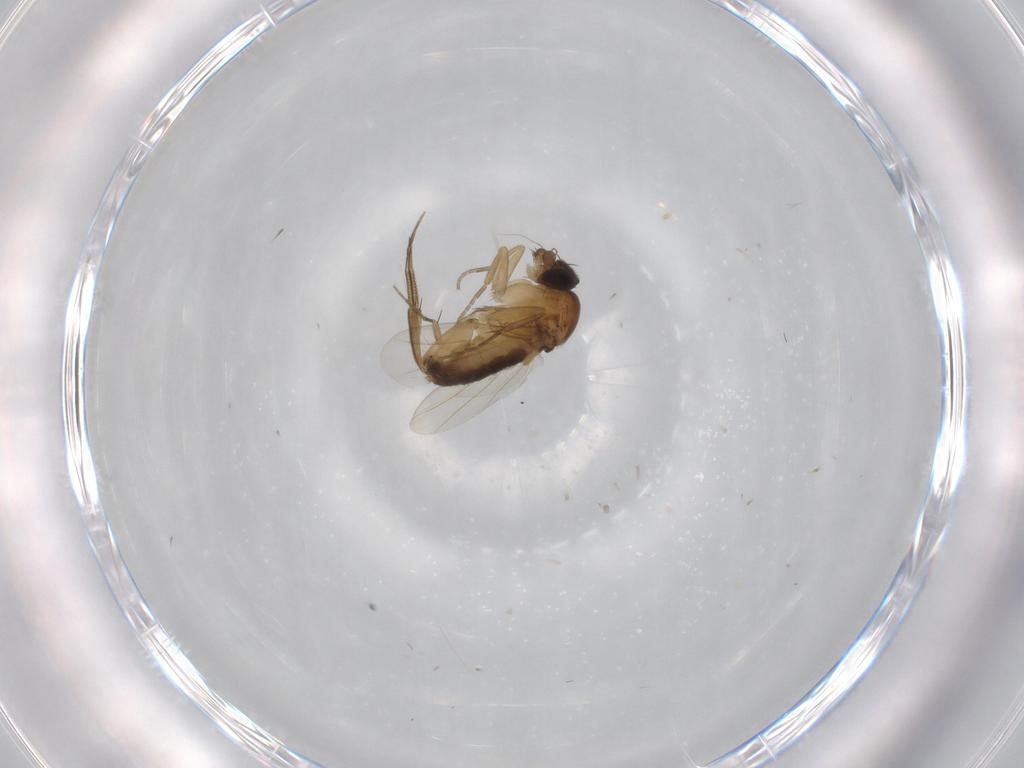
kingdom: Animalia
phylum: Arthropoda
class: Insecta
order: Diptera
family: Phoridae
